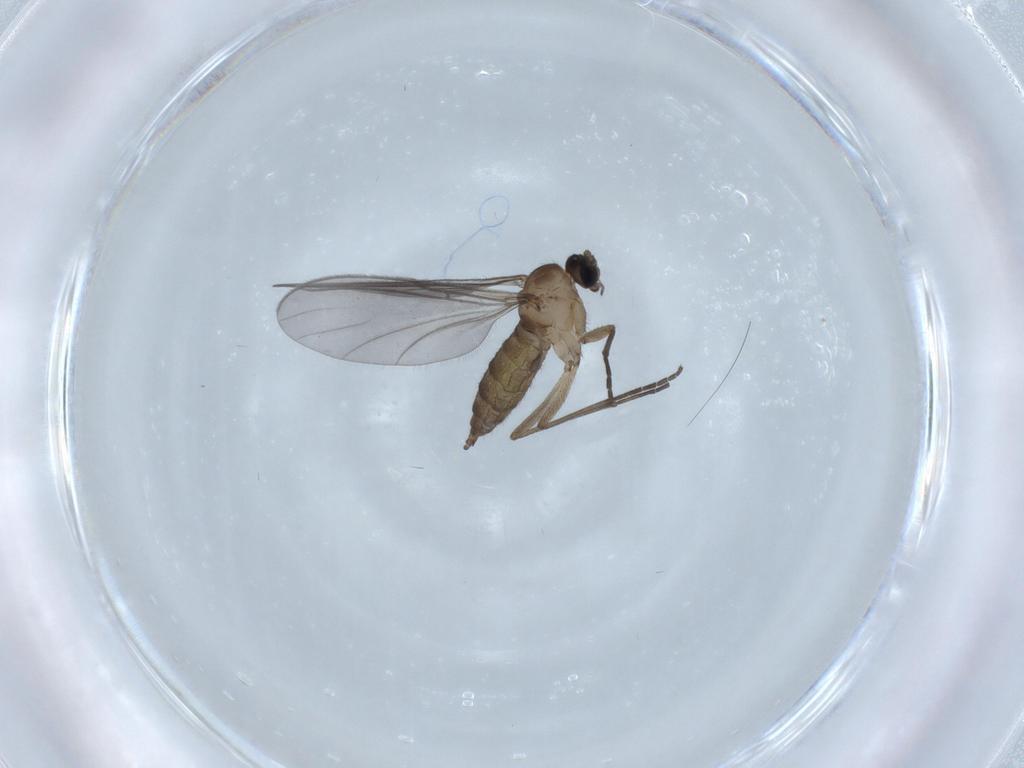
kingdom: Animalia
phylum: Arthropoda
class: Insecta
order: Diptera
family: Sciaridae
